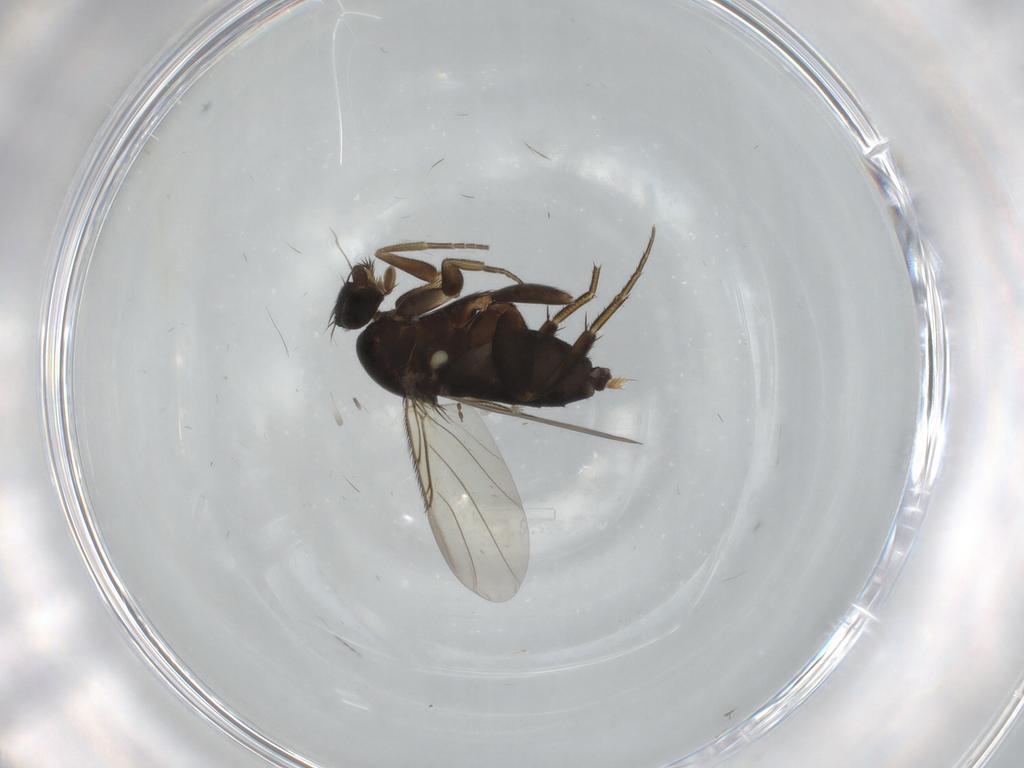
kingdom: Animalia
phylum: Arthropoda
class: Insecta
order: Diptera
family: Phoridae
